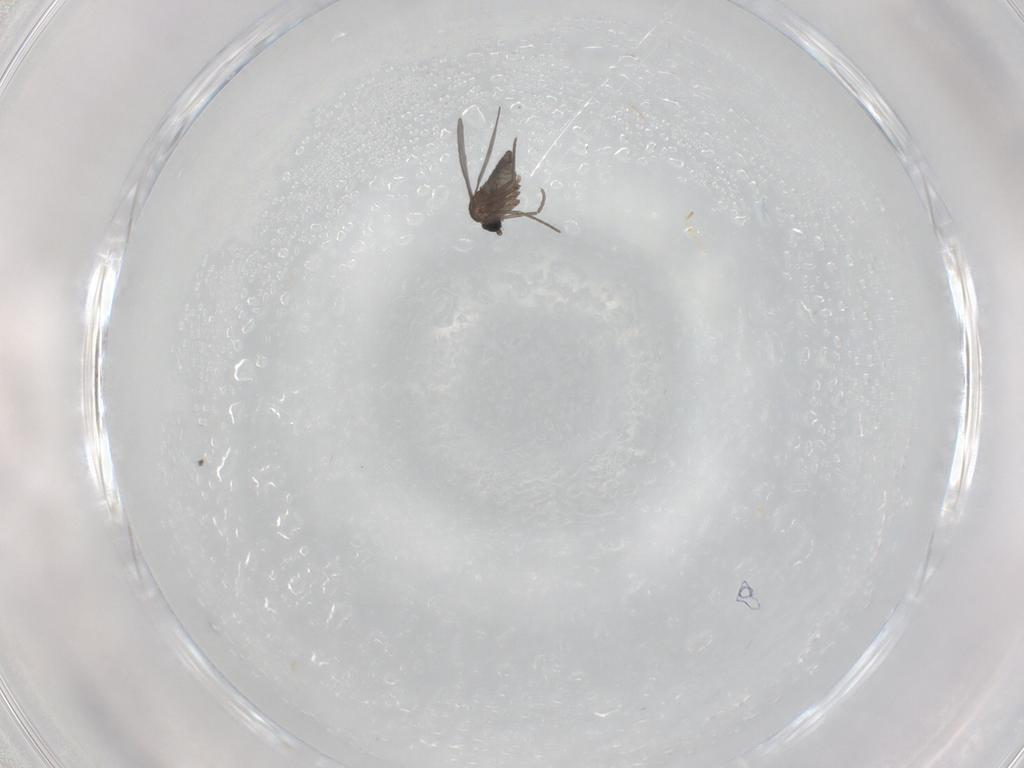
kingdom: Animalia
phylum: Arthropoda
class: Insecta
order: Diptera
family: Sciaridae
